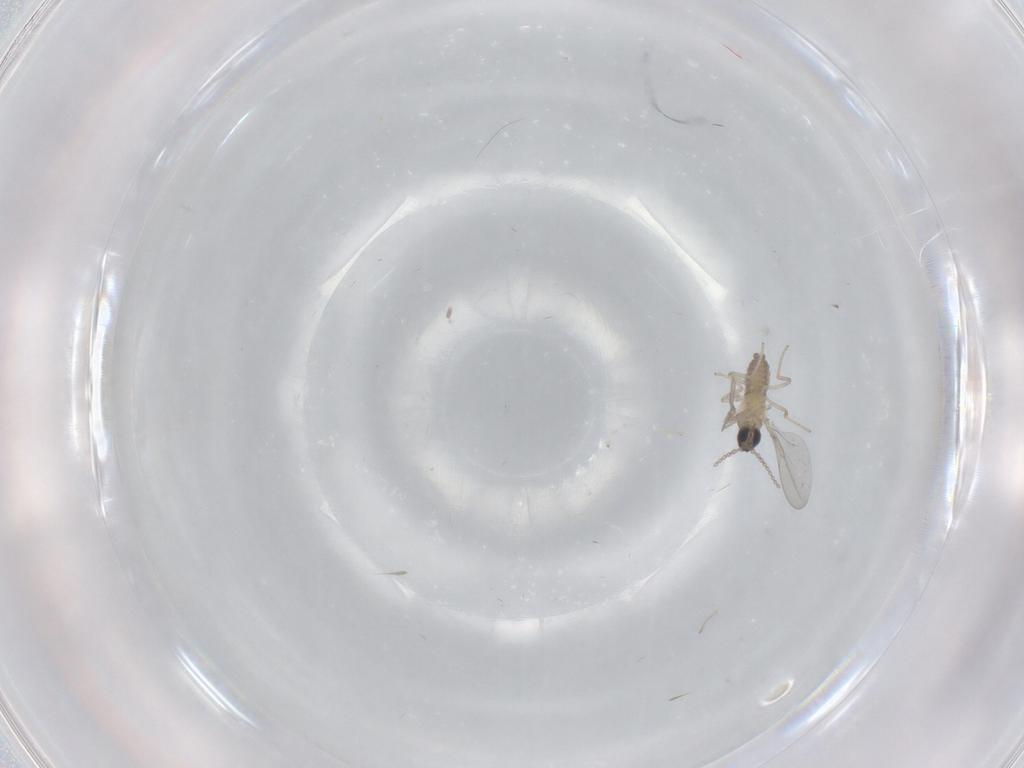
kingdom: Animalia
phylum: Arthropoda
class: Insecta
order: Diptera
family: Cecidomyiidae
